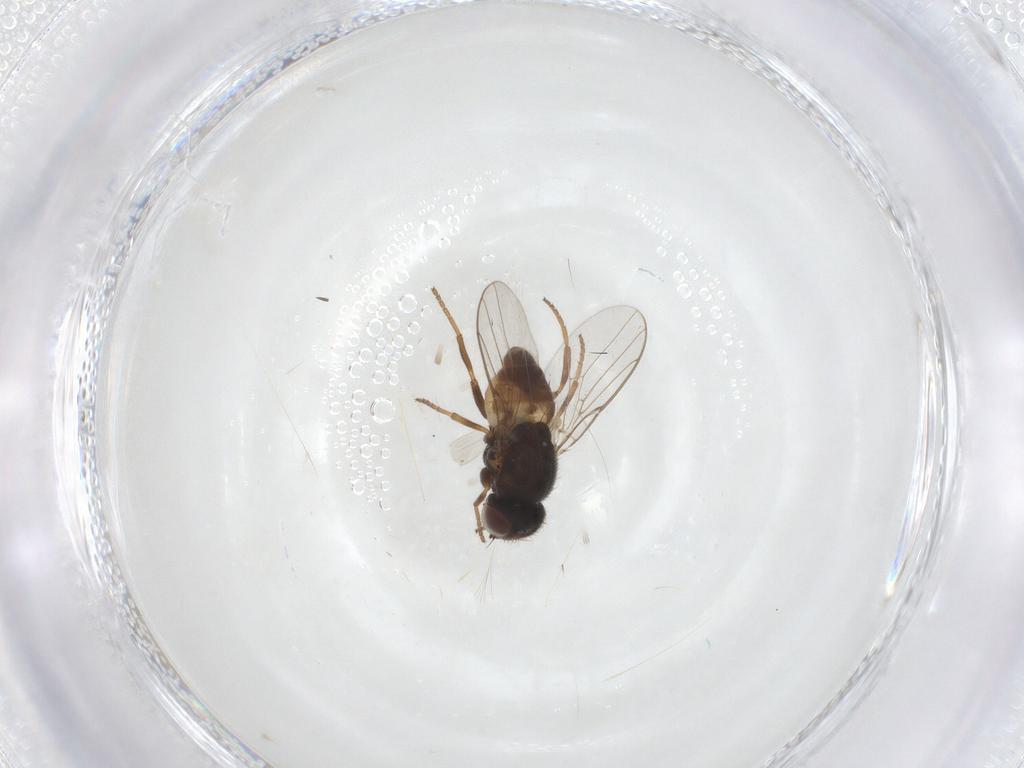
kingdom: Animalia
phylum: Arthropoda
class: Insecta
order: Diptera
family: Chloropidae
